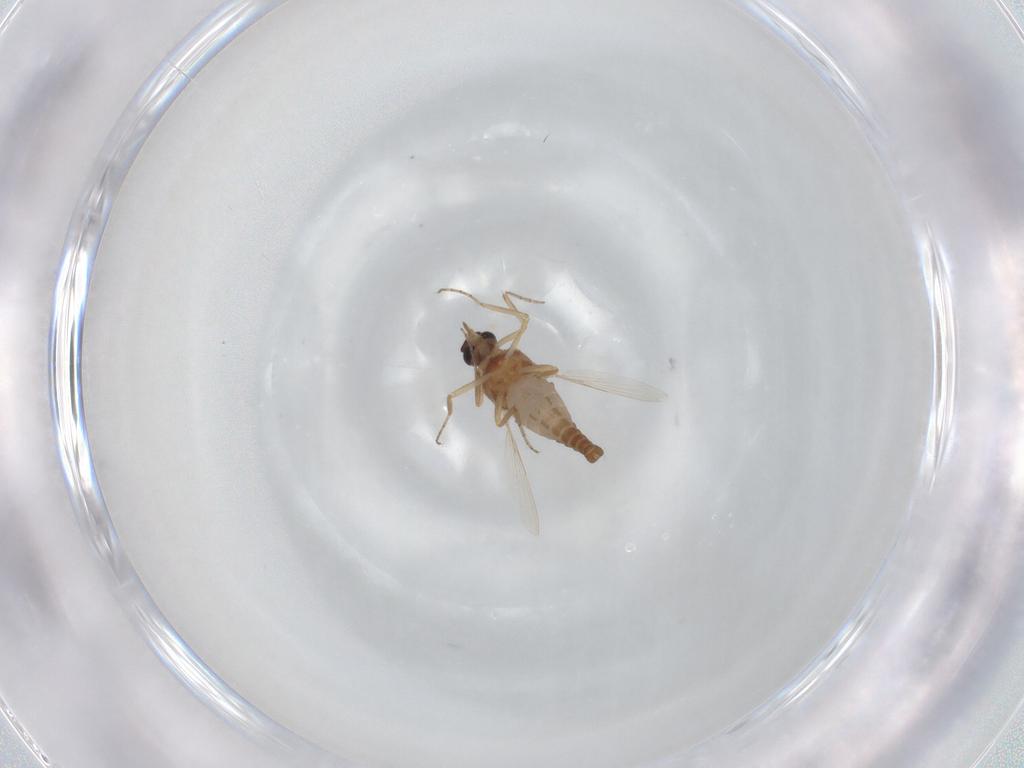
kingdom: Animalia
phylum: Arthropoda
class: Insecta
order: Diptera
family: Ceratopogonidae
